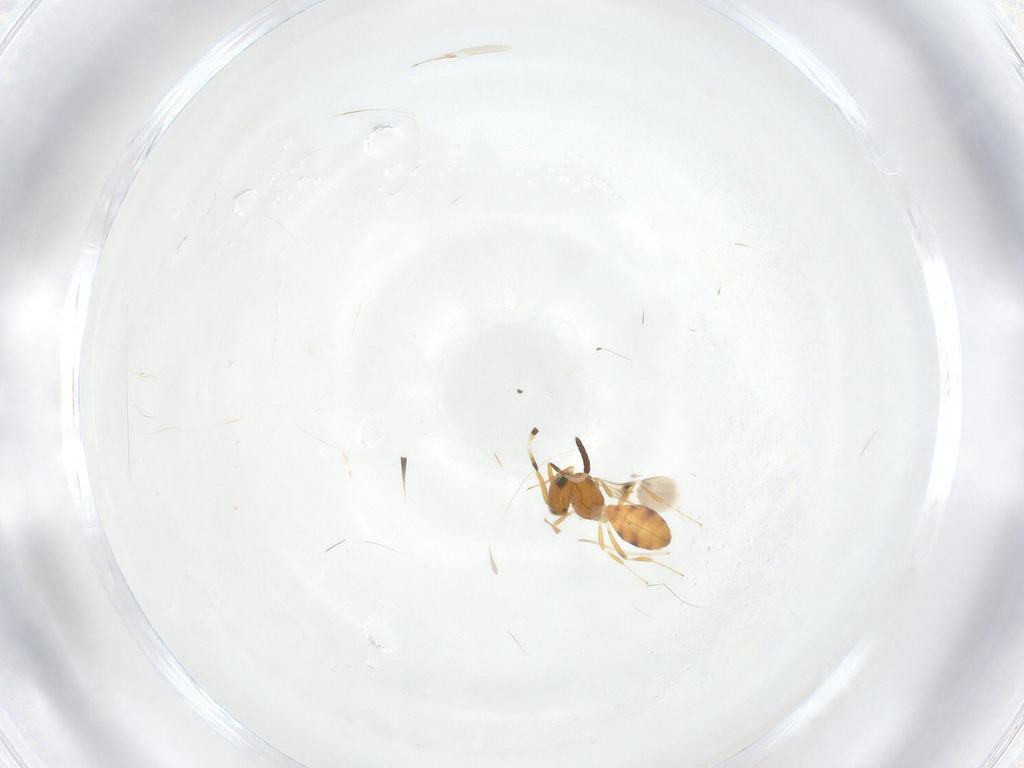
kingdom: Animalia
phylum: Arthropoda
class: Insecta
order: Hymenoptera
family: Scelionidae
